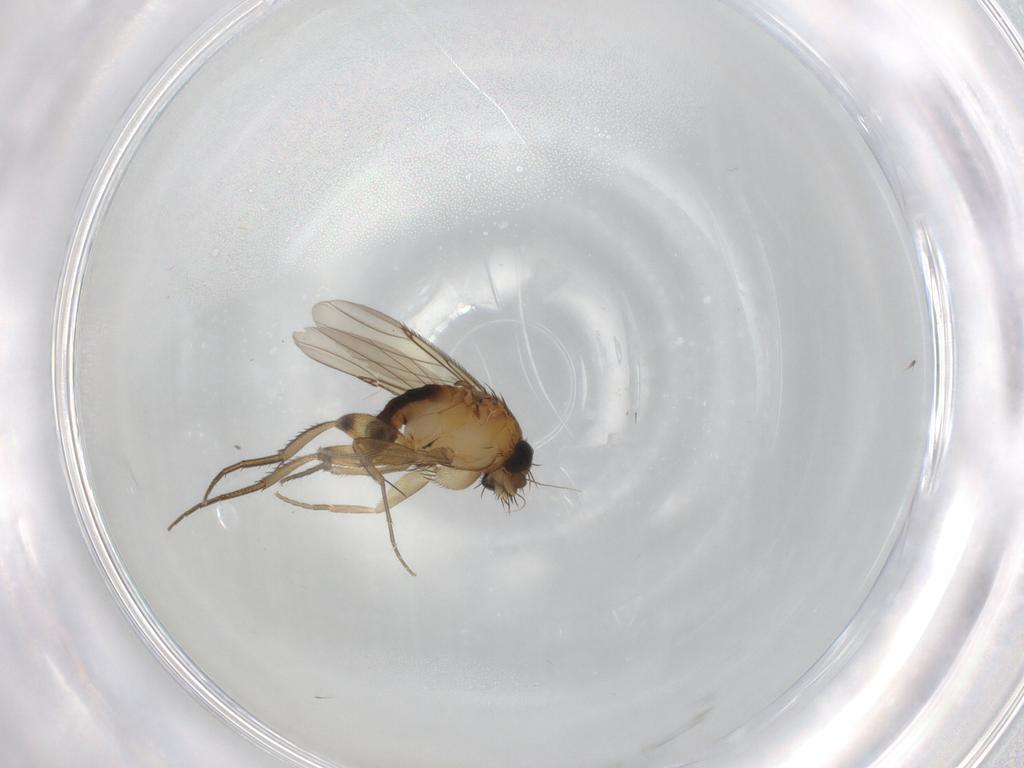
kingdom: Animalia
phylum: Arthropoda
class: Insecta
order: Diptera
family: Phoridae
